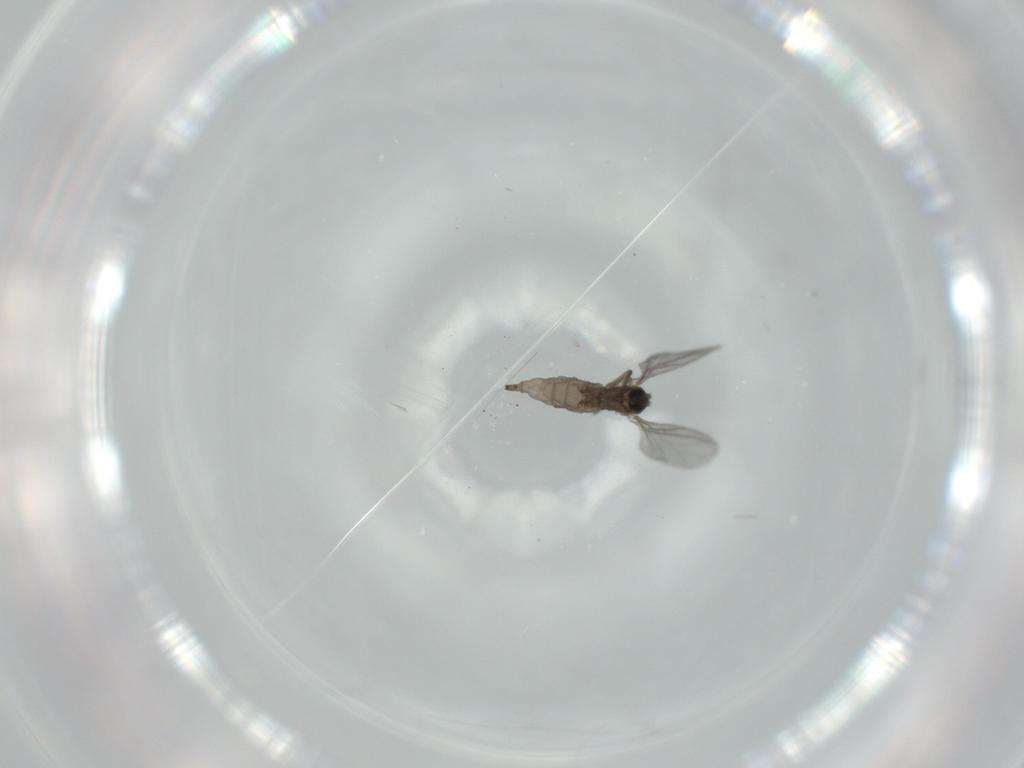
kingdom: Animalia
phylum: Arthropoda
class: Insecta
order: Diptera
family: Sciaridae
